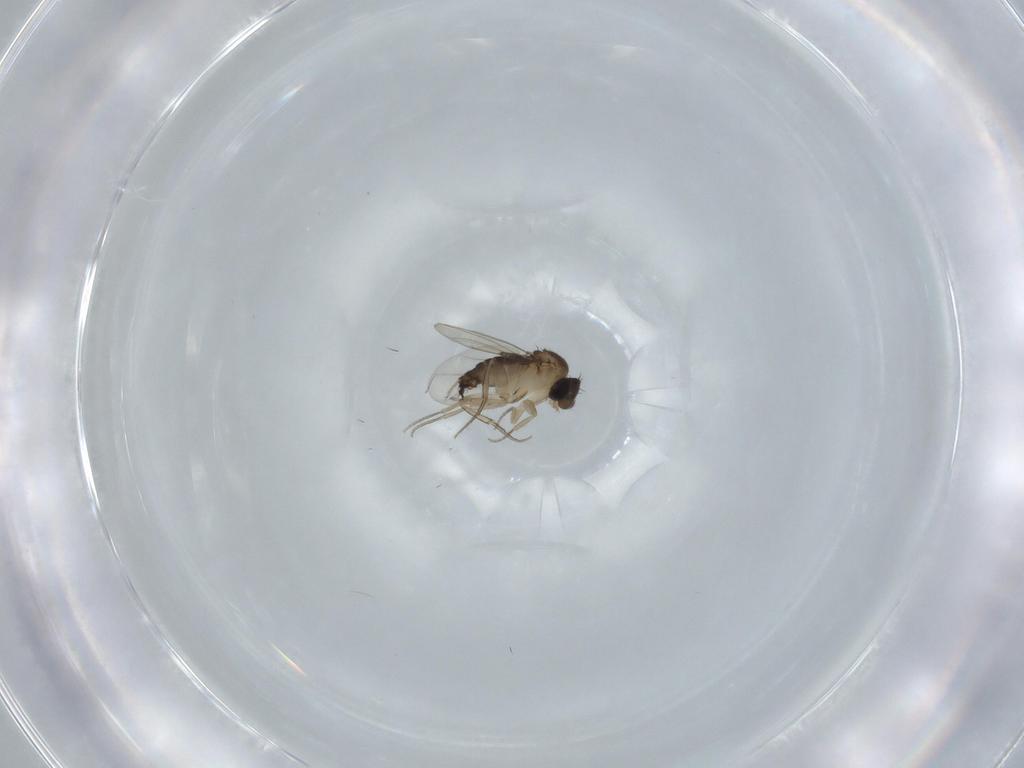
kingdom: Animalia
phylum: Arthropoda
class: Insecta
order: Diptera
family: Phoridae
